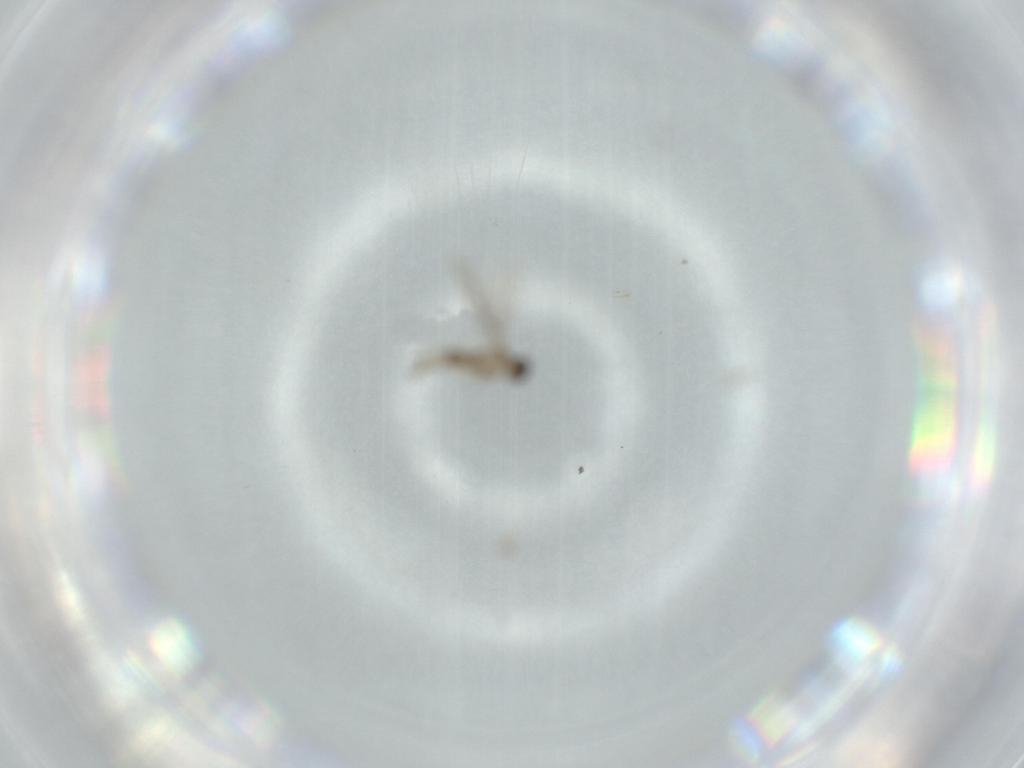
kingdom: Animalia
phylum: Arthropoda
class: Insecta
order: Diptera
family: Cecidomyiidae
